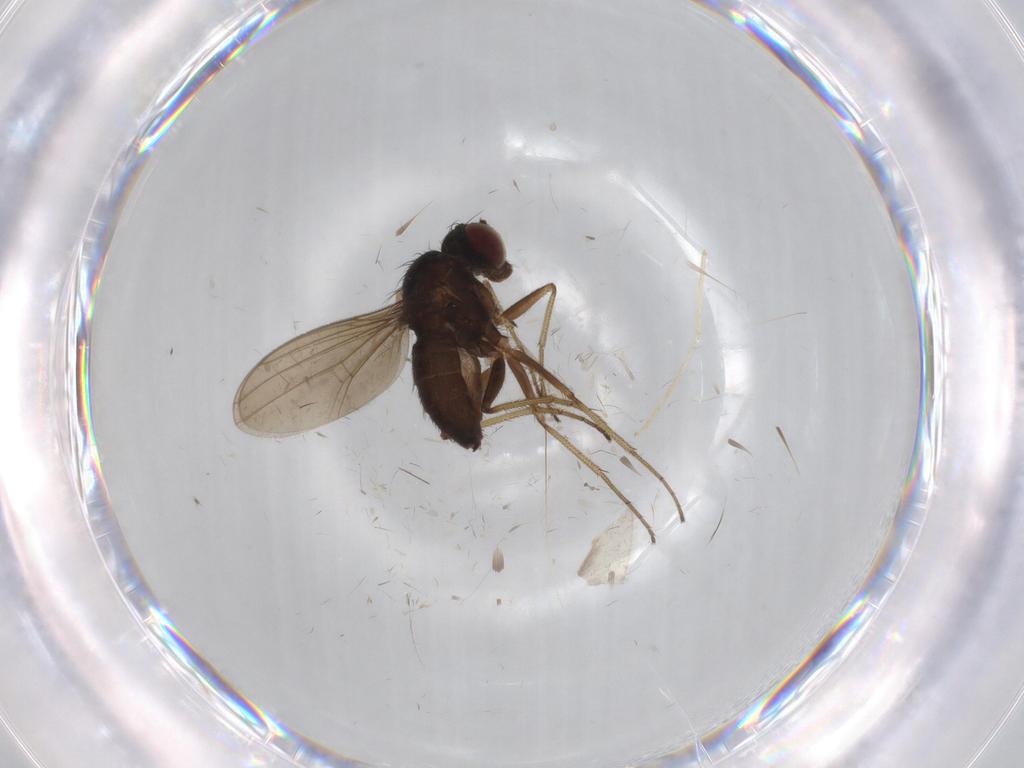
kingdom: Animalia
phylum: Arthropoda
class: Insecta
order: Diptera
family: Dolichopodidae
